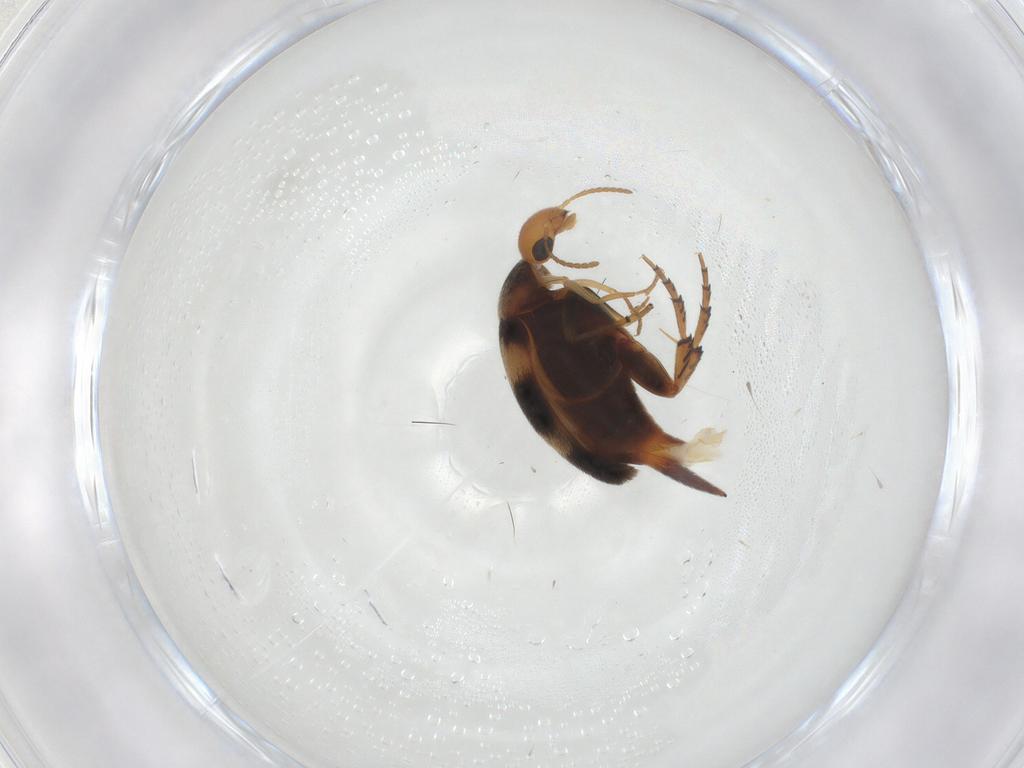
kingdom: Animalia
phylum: Arthropoda
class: Insecta
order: Coleoptera
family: Mordellidae
